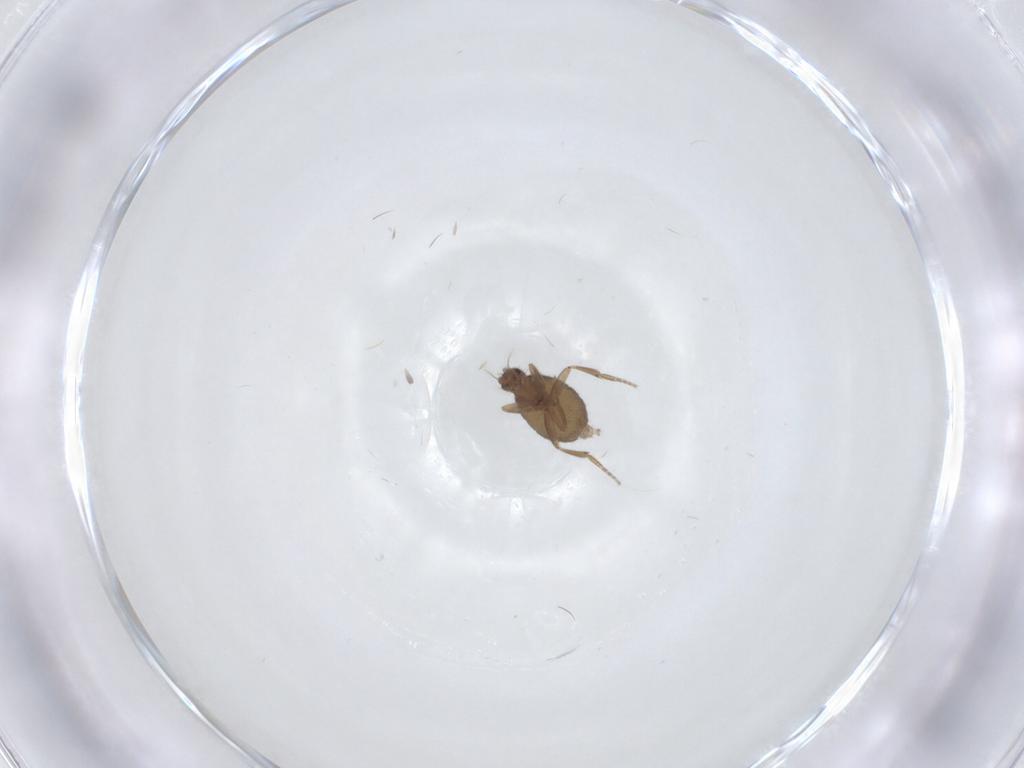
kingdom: Animalia
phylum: Arthropoda
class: Insecta
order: Diptera
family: Phoridae
